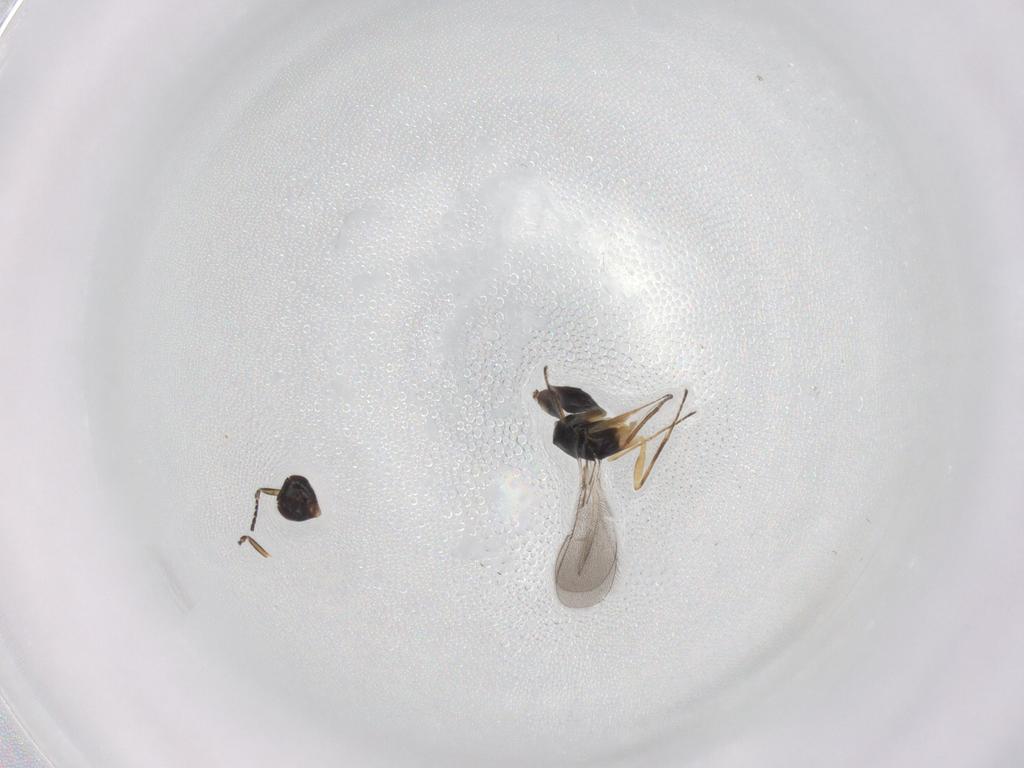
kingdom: Animalia
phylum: Arthropoda
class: Insecta
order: Hymenoptera
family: Mymaridae
